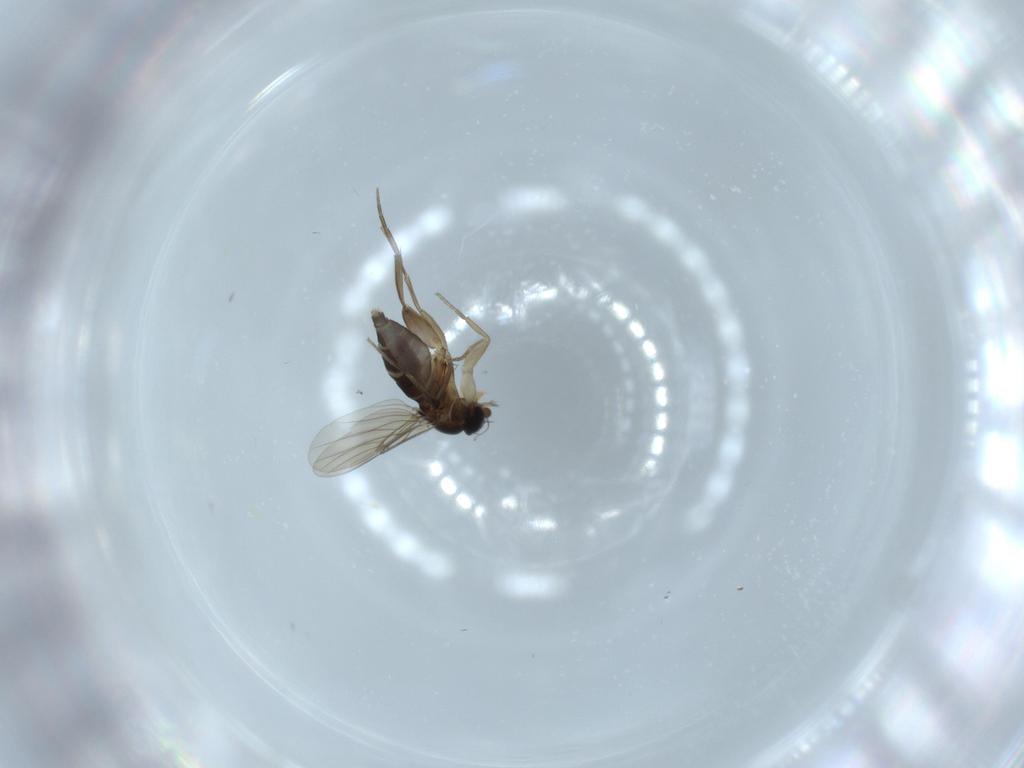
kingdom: Animalia
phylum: Arthropoda
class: Insecta
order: Diptera
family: Phoridae
